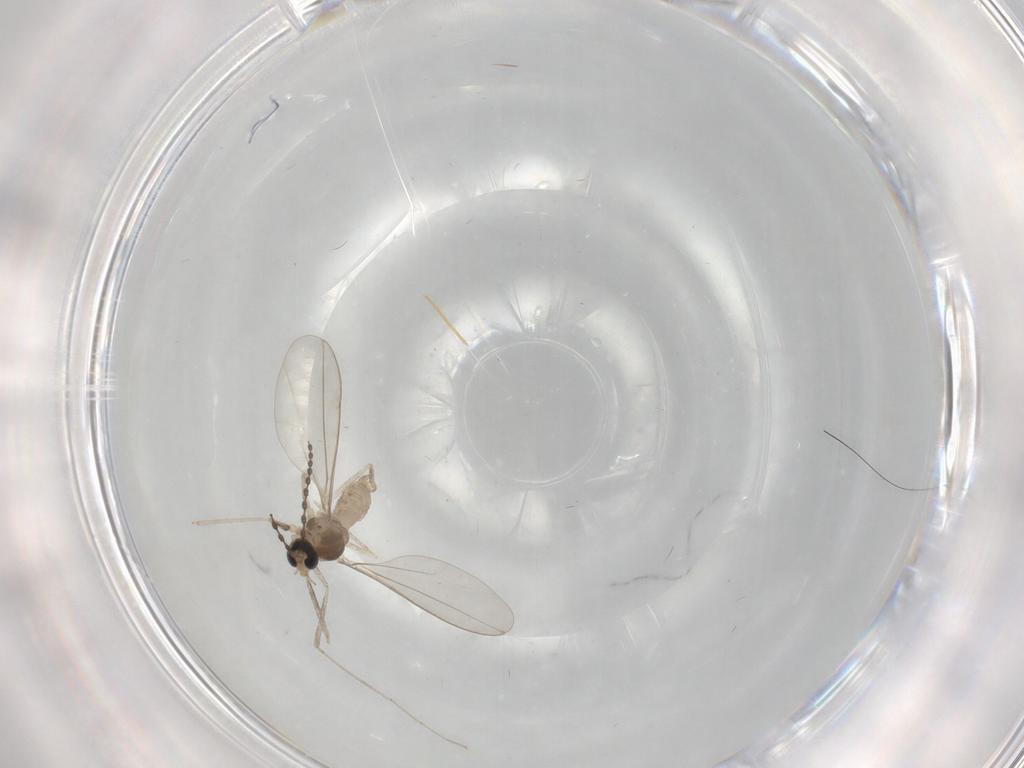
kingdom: Animalia
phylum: Arthropoda
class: Insecta
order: Diptera
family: Cecidomyiidae
